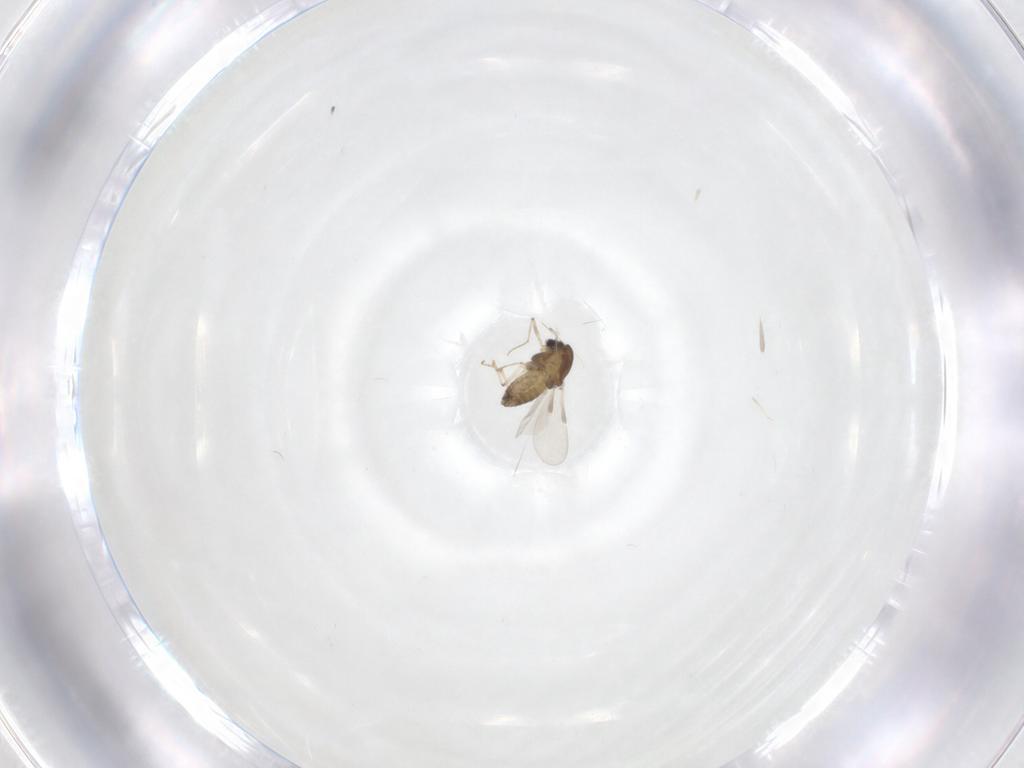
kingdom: Animalia
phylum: Arthropoda
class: Insecta
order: Diptera
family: Chironomidae
